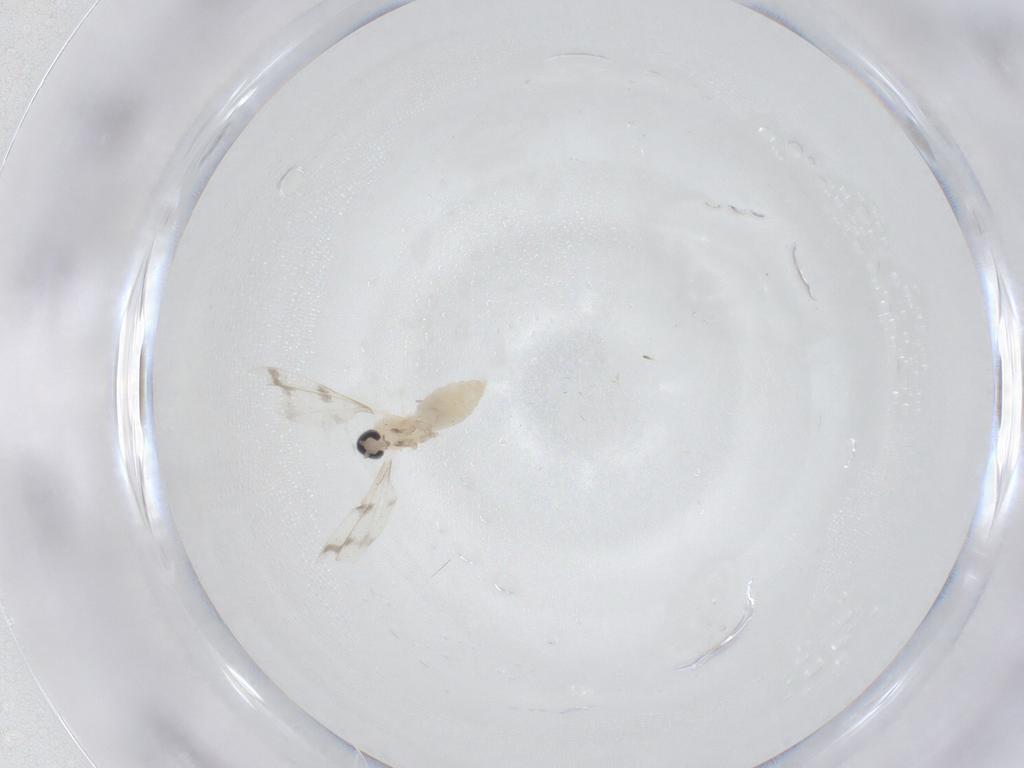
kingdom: Animalia
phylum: Arthropoda
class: Insecta
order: Diptera
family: Cecidomyiidae
